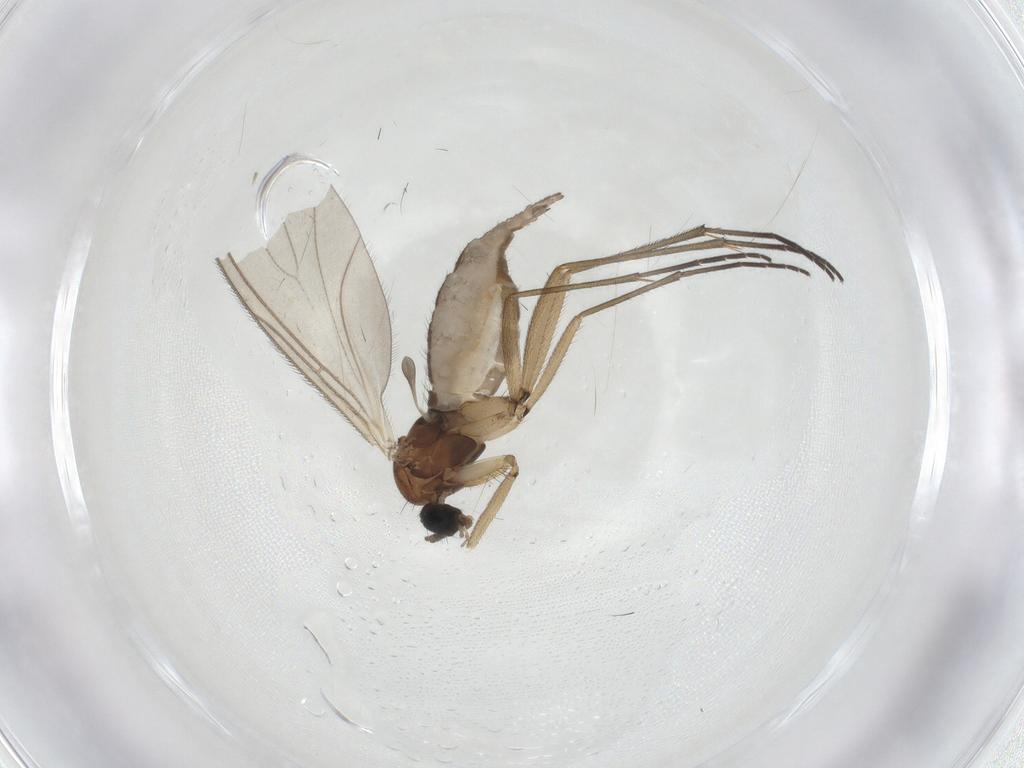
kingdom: Animalia
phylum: Arthropoda
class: Insecta
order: Diptera
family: Sciaridae
